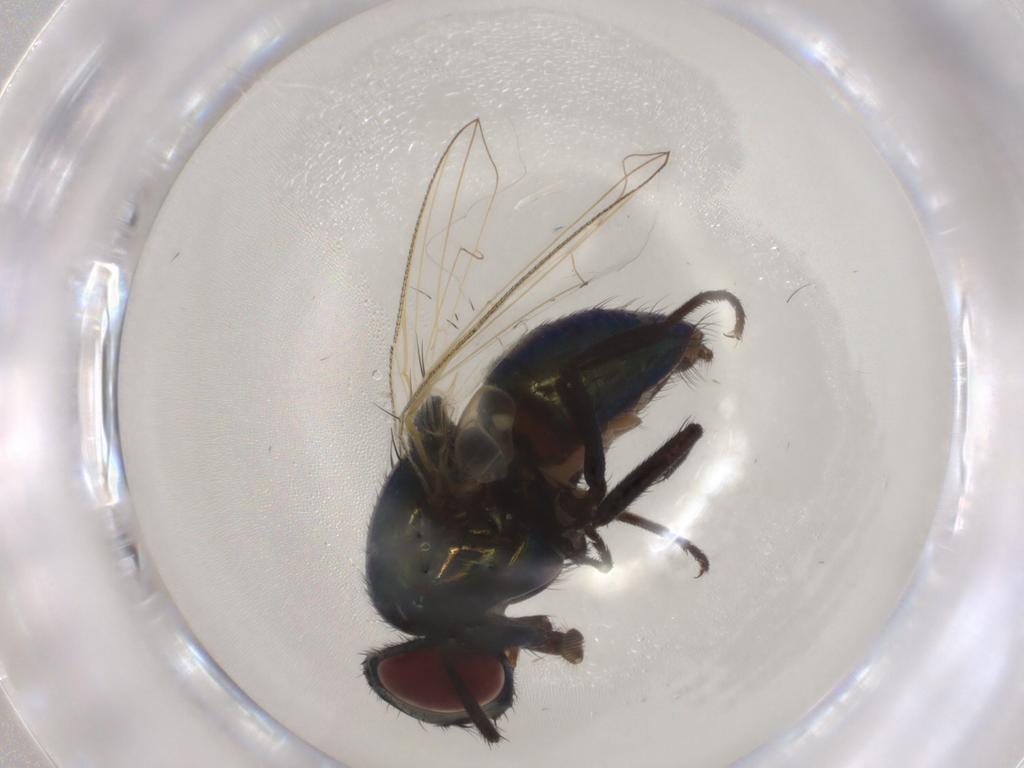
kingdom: Animalia
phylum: Arthropoda
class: Insecta
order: Diptera
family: Muscidae
